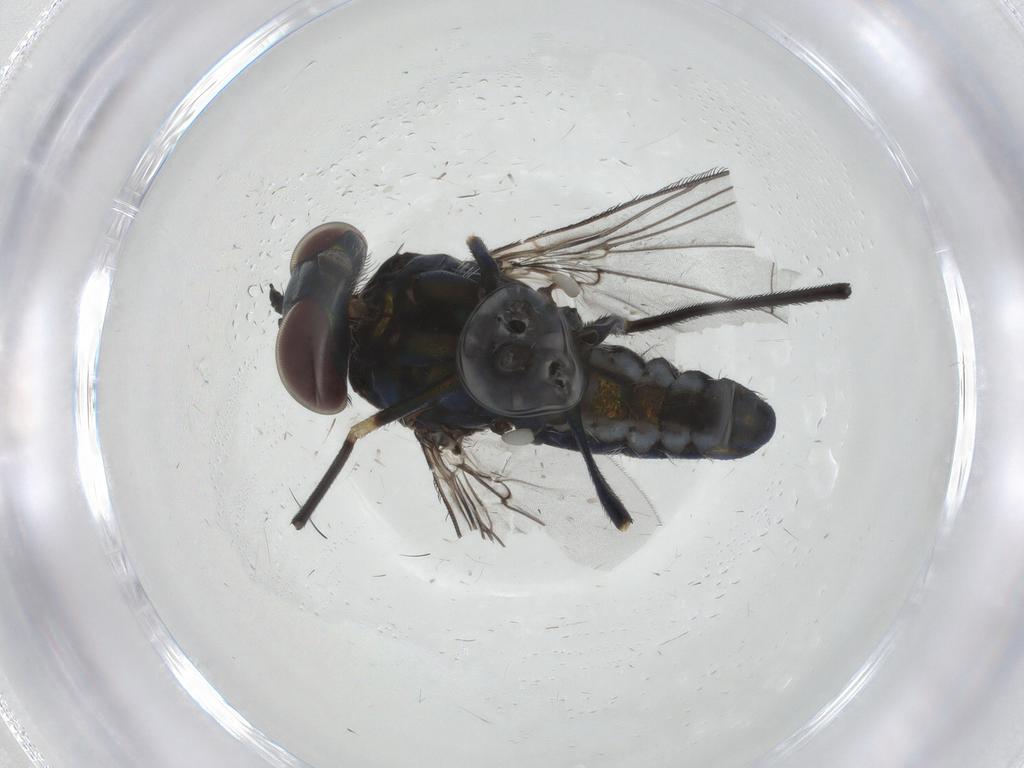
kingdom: Animalia
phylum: Arthropoda
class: Insecta
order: Diptera
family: Dolichopodidae
